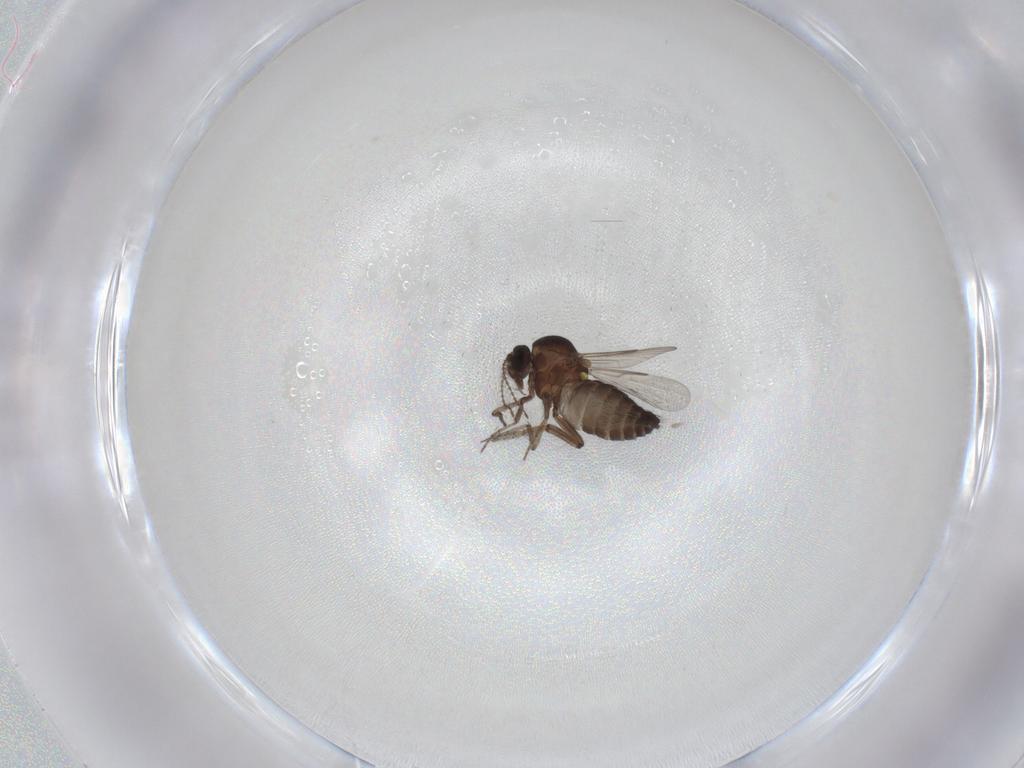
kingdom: Animalia
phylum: Arthropoda
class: Insecta
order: Diptera
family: Ceratopogonidae
